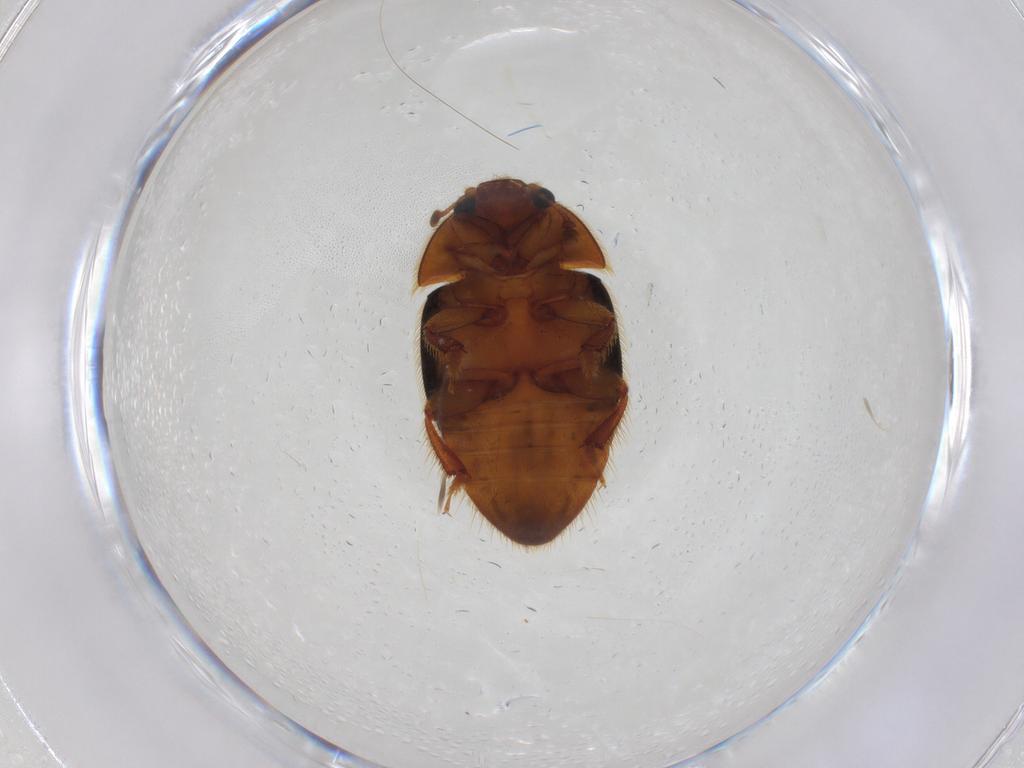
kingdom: Animalia
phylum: Arthropoda
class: Insecta
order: Coleoptera
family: Nitidulidae
